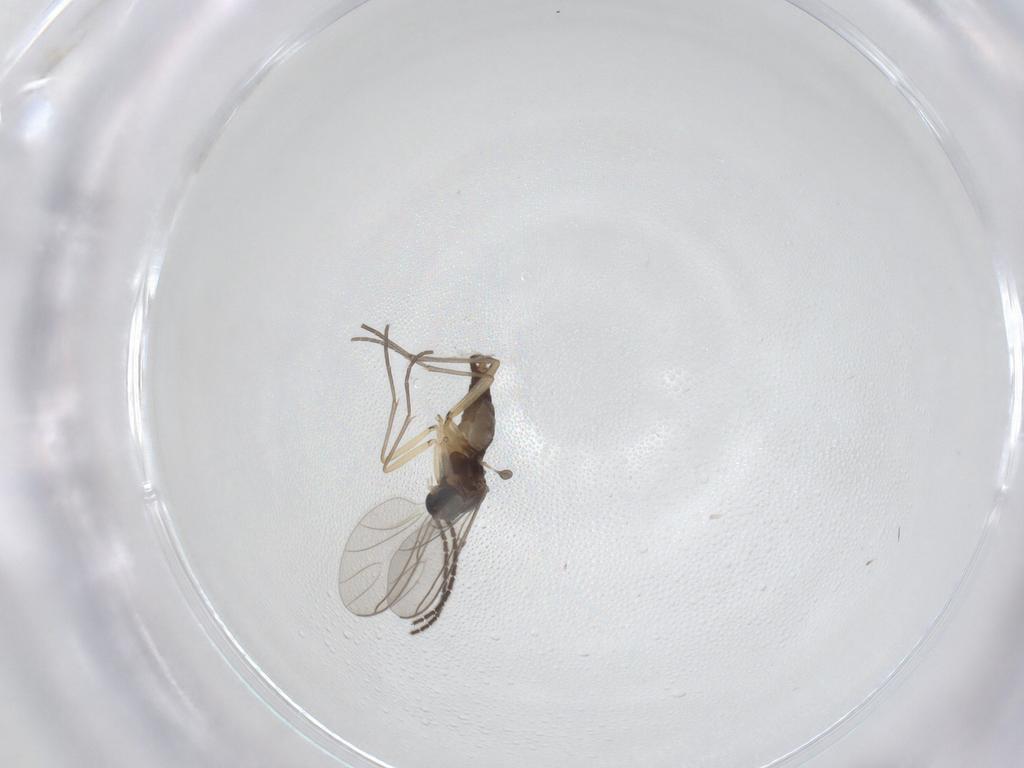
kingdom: Animalia
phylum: Arthropoda
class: Insecta
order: Diptera
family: Sciaridae
